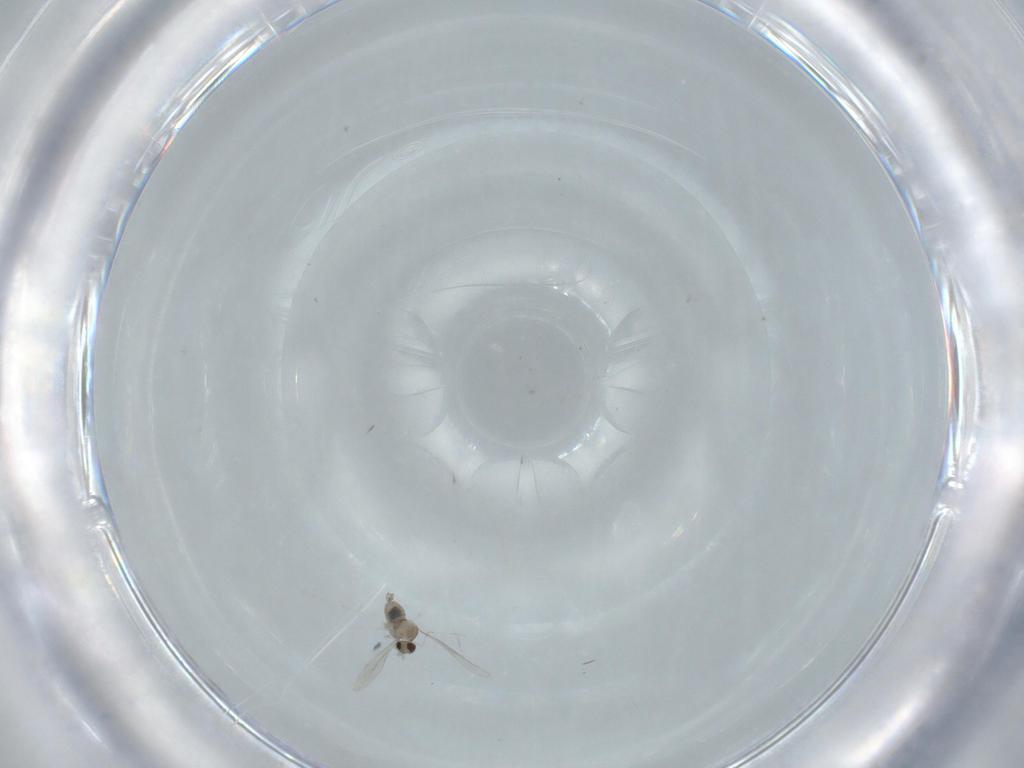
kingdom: Animalia
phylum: Arthropoda
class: Insecta
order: Diptera
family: Cecidomyiidae
